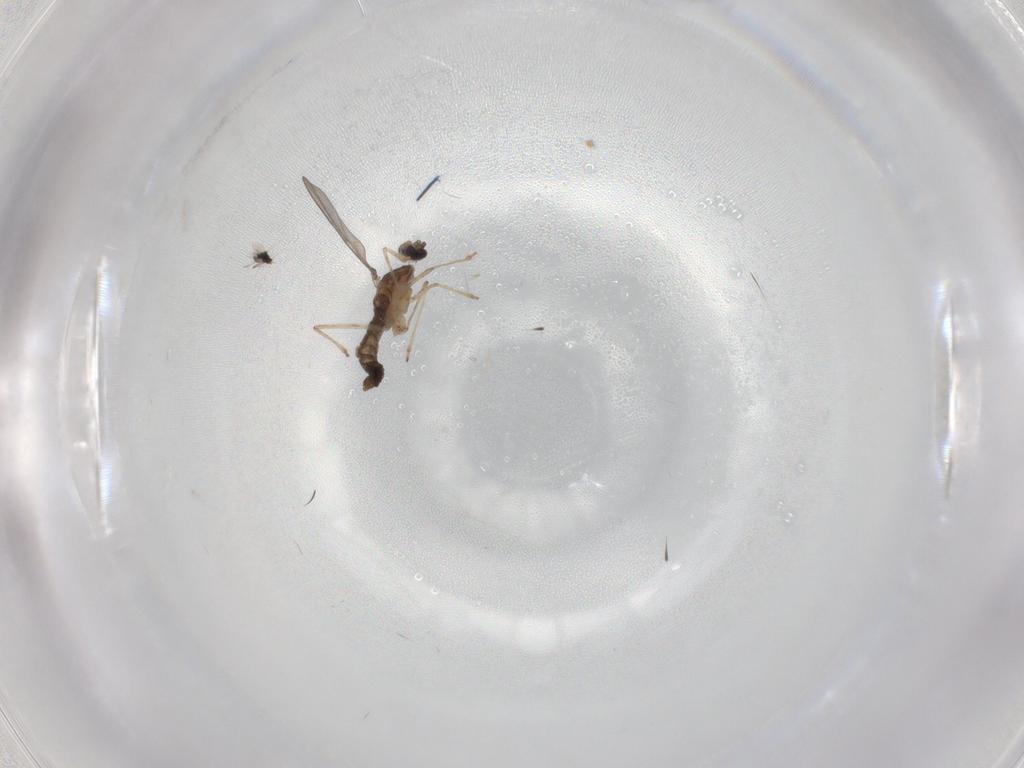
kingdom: Animalia
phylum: Arthropoda
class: Insecta
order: Diptera
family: Cecidomyiidae
